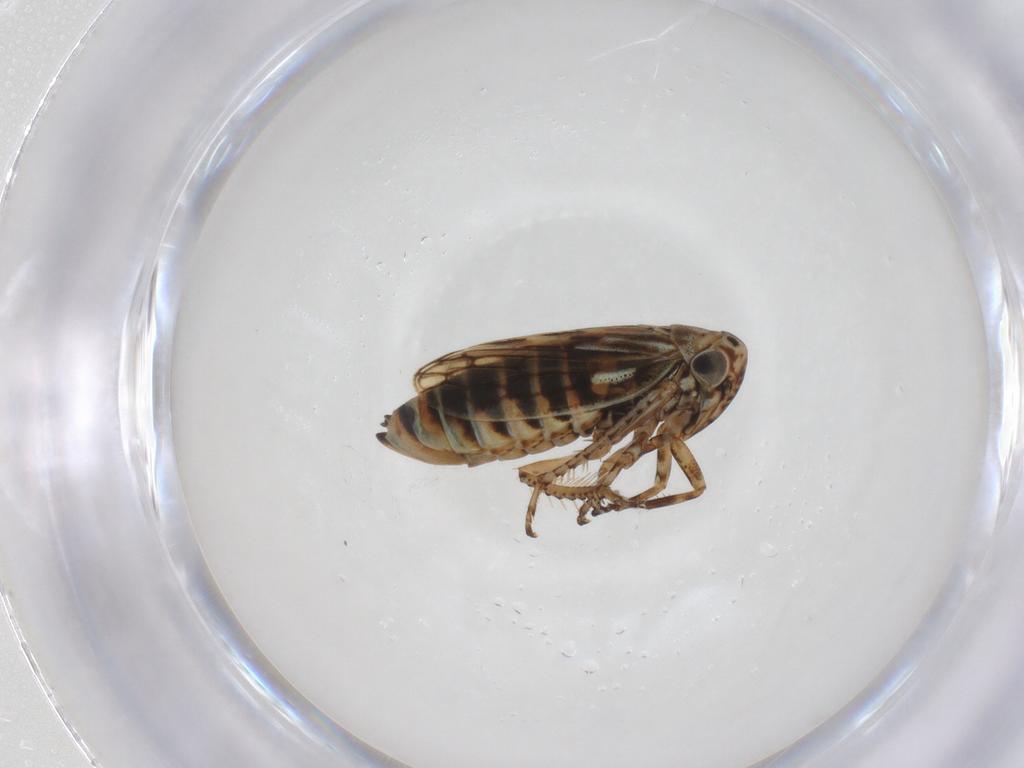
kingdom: Animalia
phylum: Arthropoda
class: Insecta
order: Hemiptera
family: Cicadellidae
